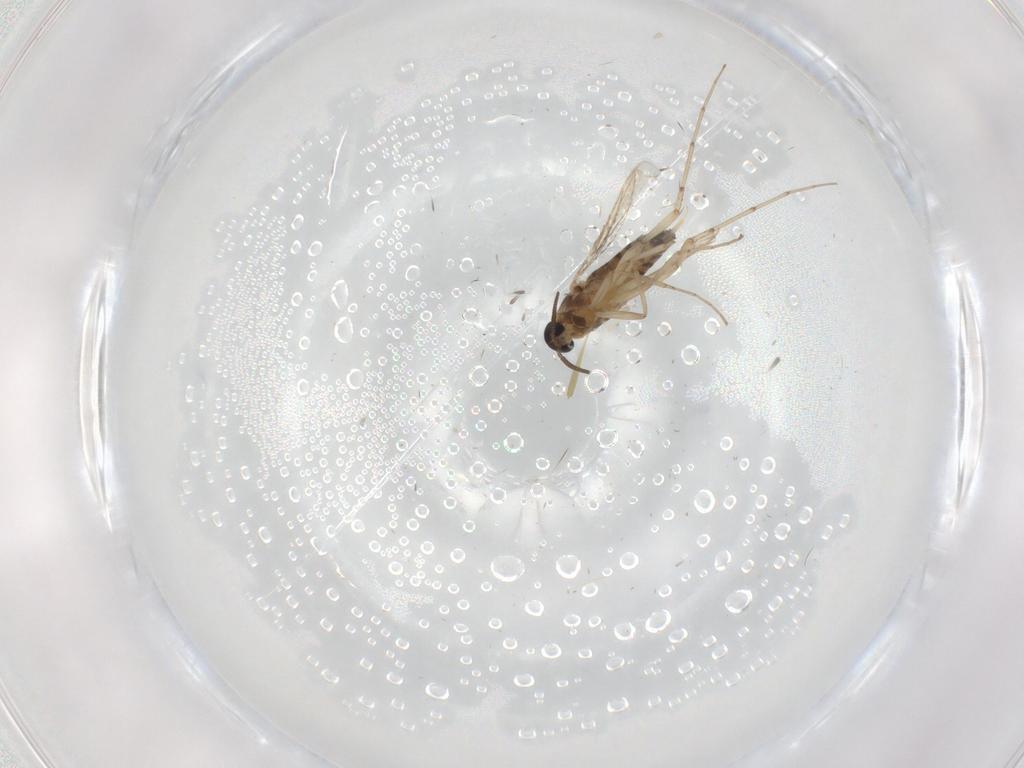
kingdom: Animalia
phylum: Arthropoda
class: Insecta
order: Diptera
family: Cecidomyiidae
